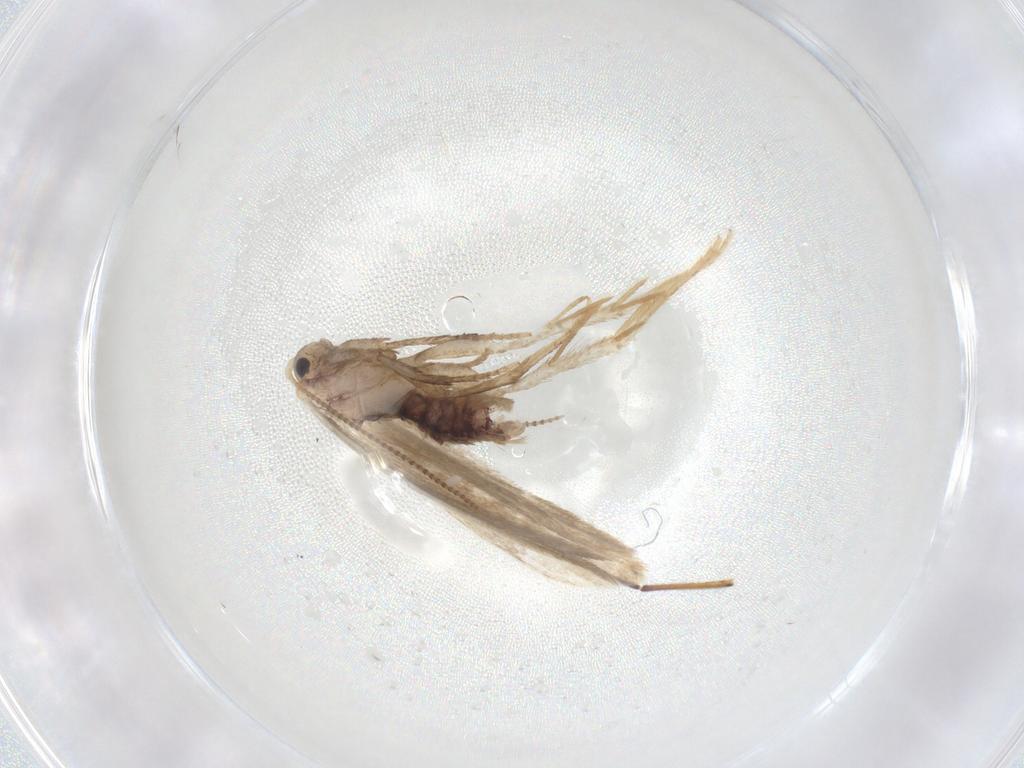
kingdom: Animalia
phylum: Arthropoda
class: Insecta
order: Lepidoptera
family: Dryadaulidae
